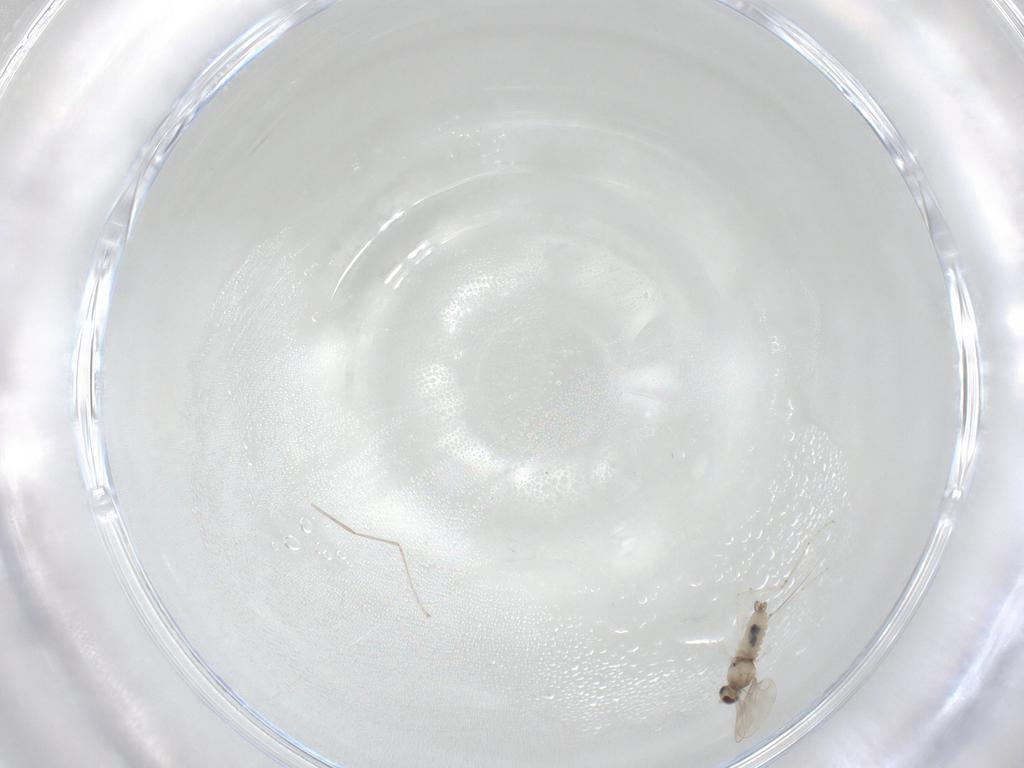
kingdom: Animalia
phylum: Arthropoda
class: Insecta
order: Diptera
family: Cecidomyiidae
